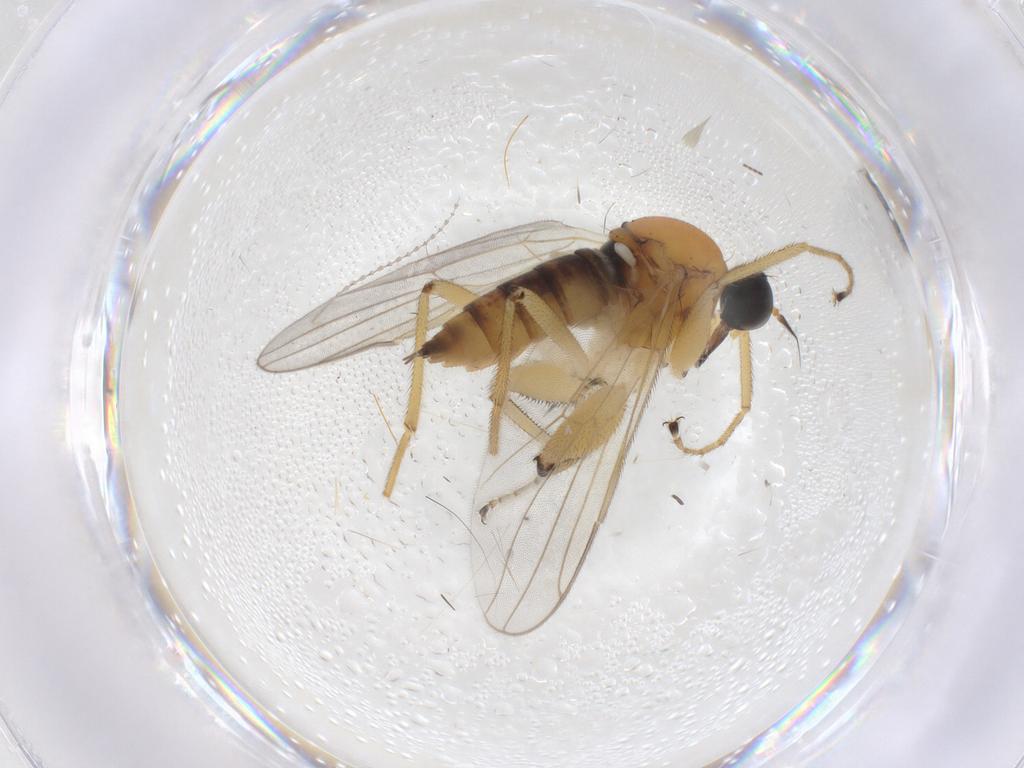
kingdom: Animalia
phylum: Arthropoda
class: Insecta
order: Diptera
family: Hybotidae
